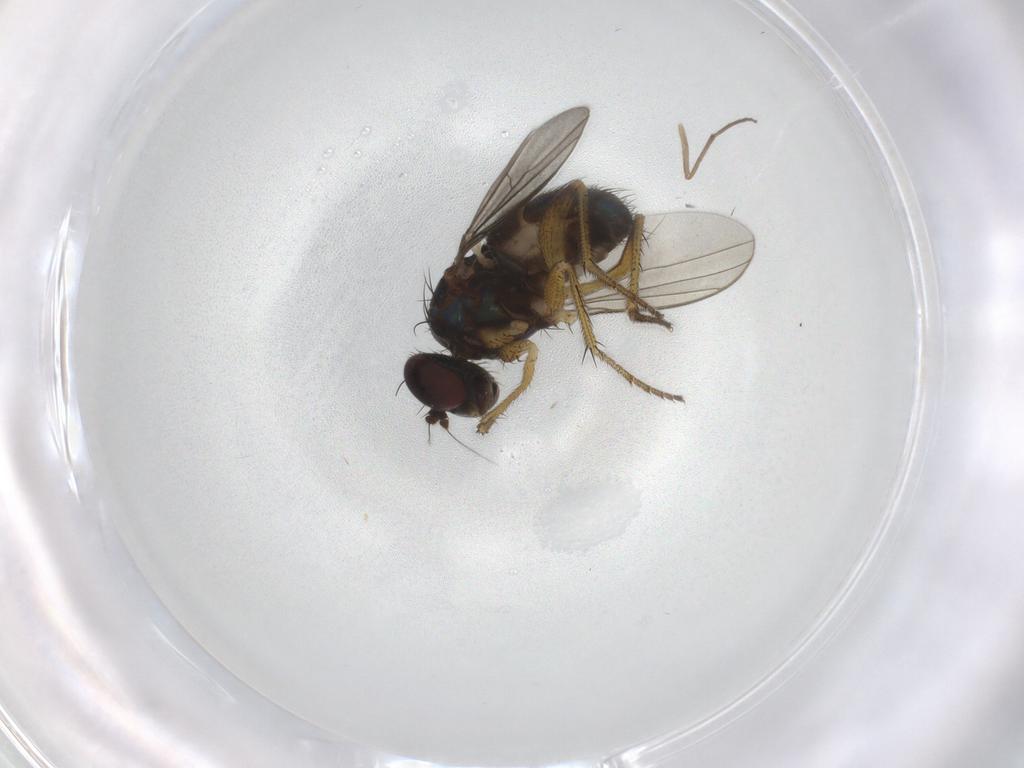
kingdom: Animalia
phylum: Arthropoda
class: Insecta
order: Diptera
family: Dolichopodidae
